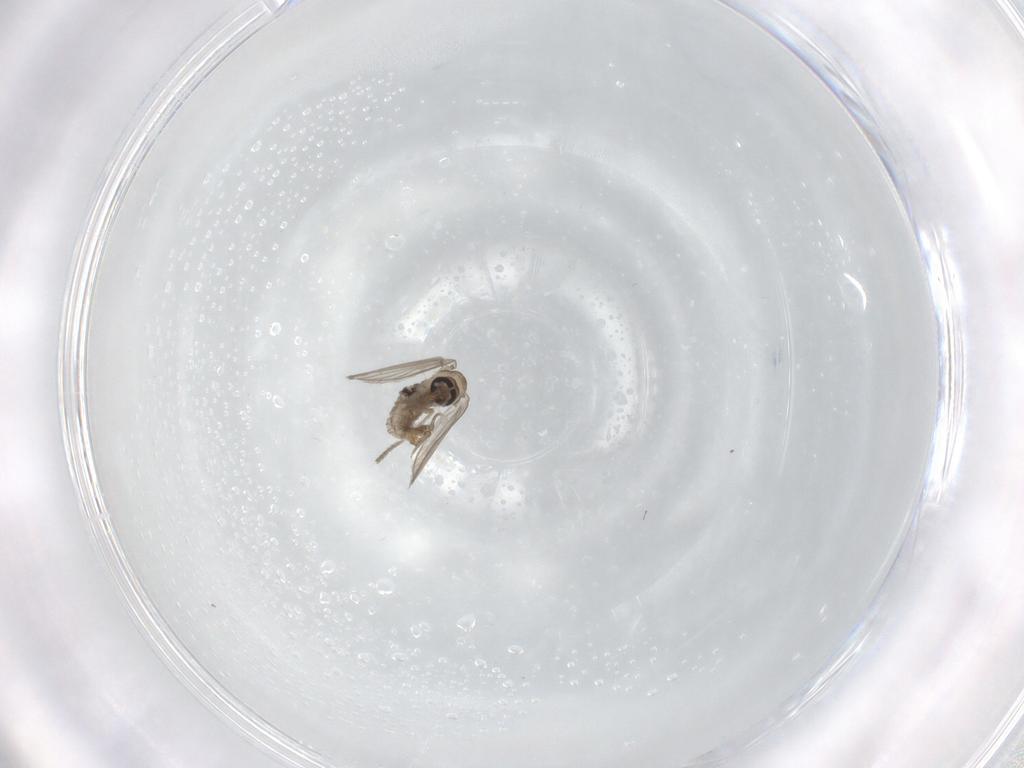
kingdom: Animalia
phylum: Arthropoda
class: Insecta
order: Diptera
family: Psychodidae
